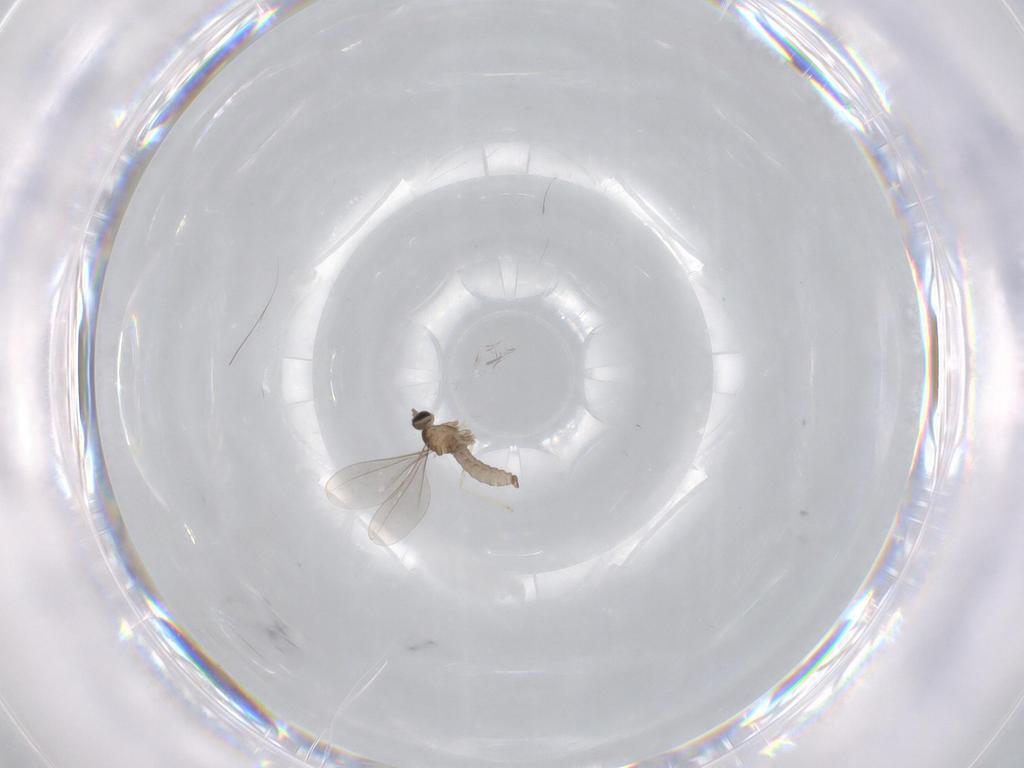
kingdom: Animalia
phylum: Arthropoda
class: Insecta
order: Diptera
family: Cecidomyiidae
